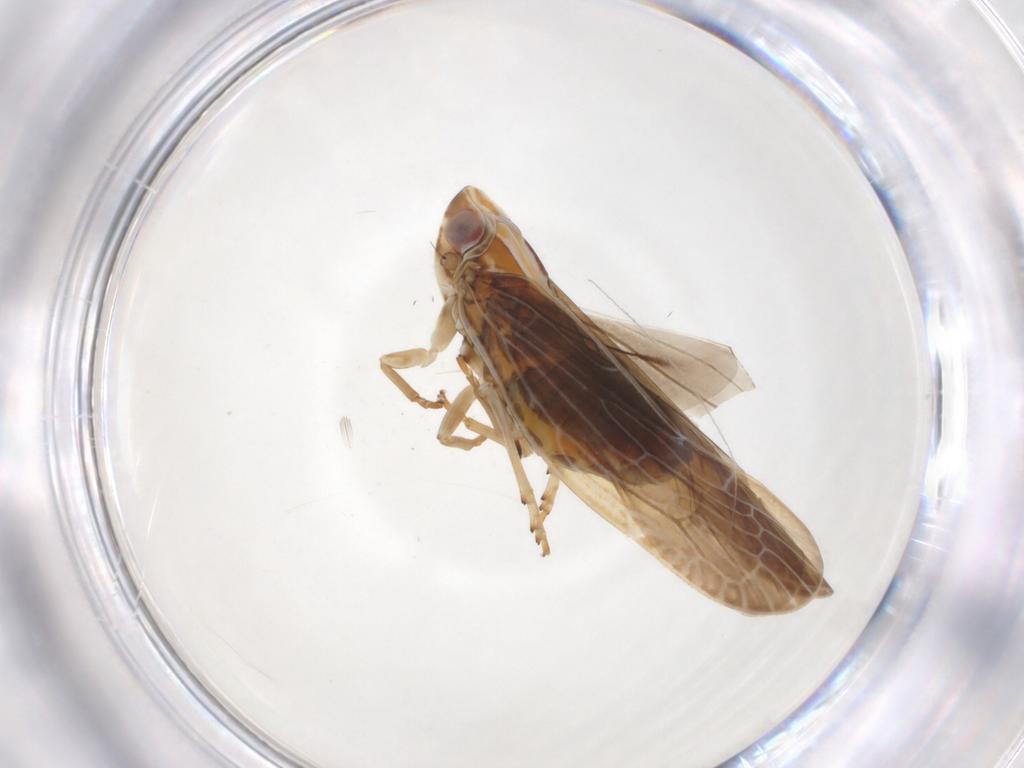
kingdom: Animalia
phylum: Arthropoda
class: Insecta
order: Hemiptera
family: Achilidae
